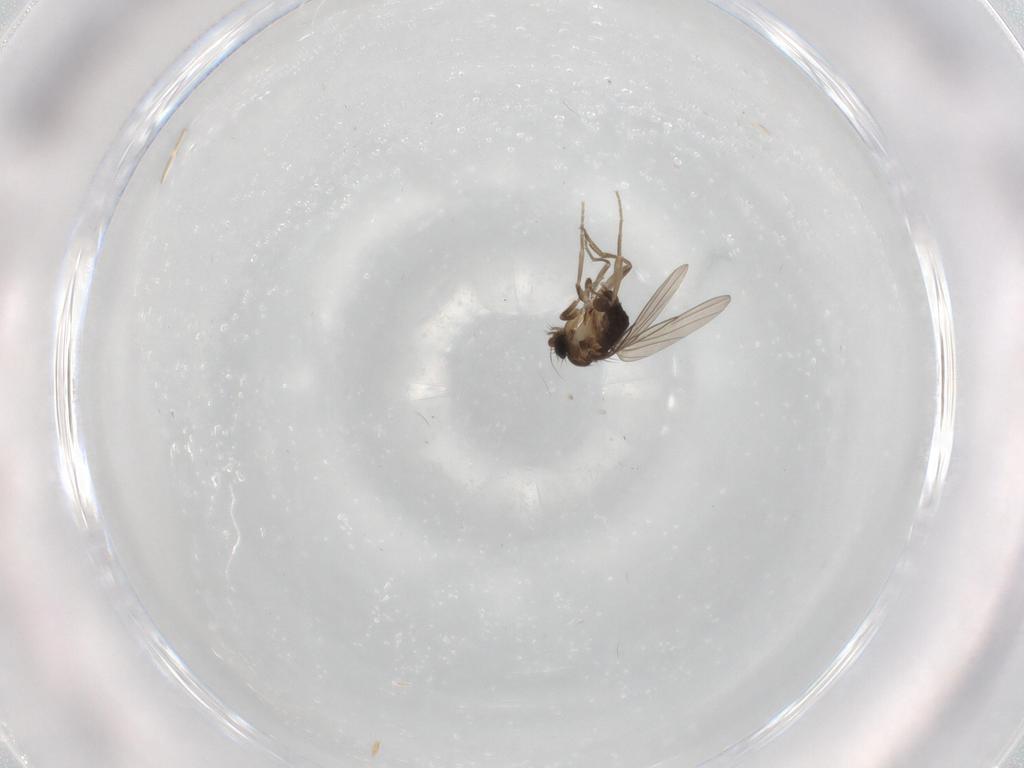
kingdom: Animalia
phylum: Arthropoda
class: Insecta
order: Diptera
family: Phoridae
